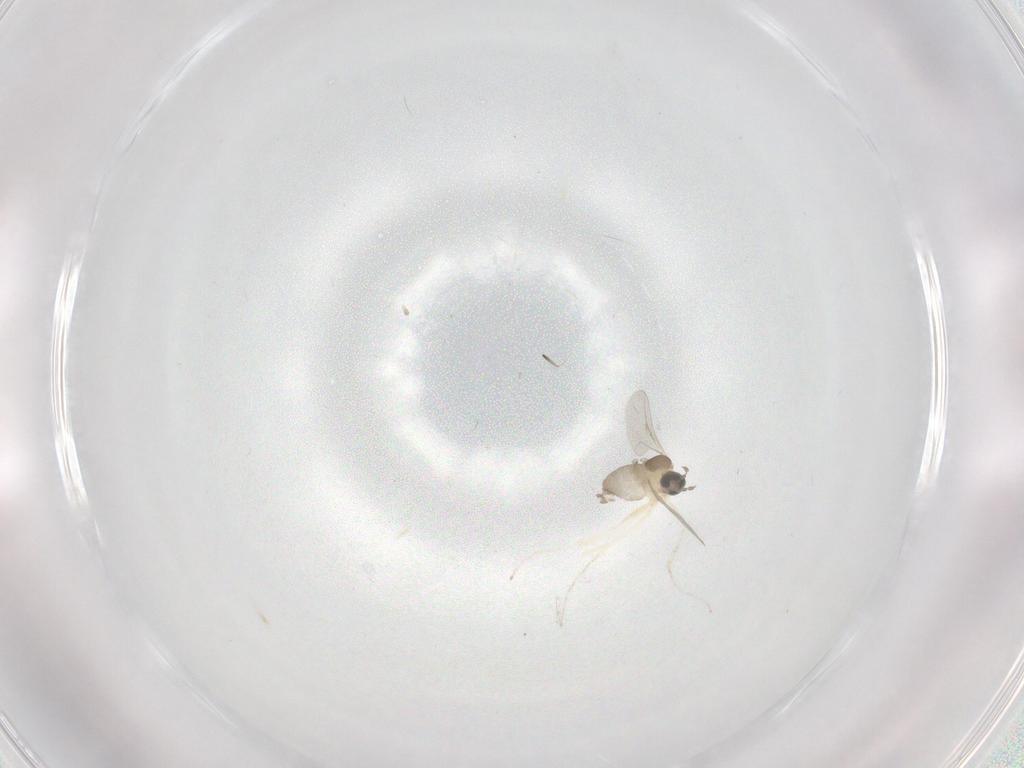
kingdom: Animalia
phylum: Arthropoda
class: Insecta
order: Diptera
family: Cecidomyiidae
